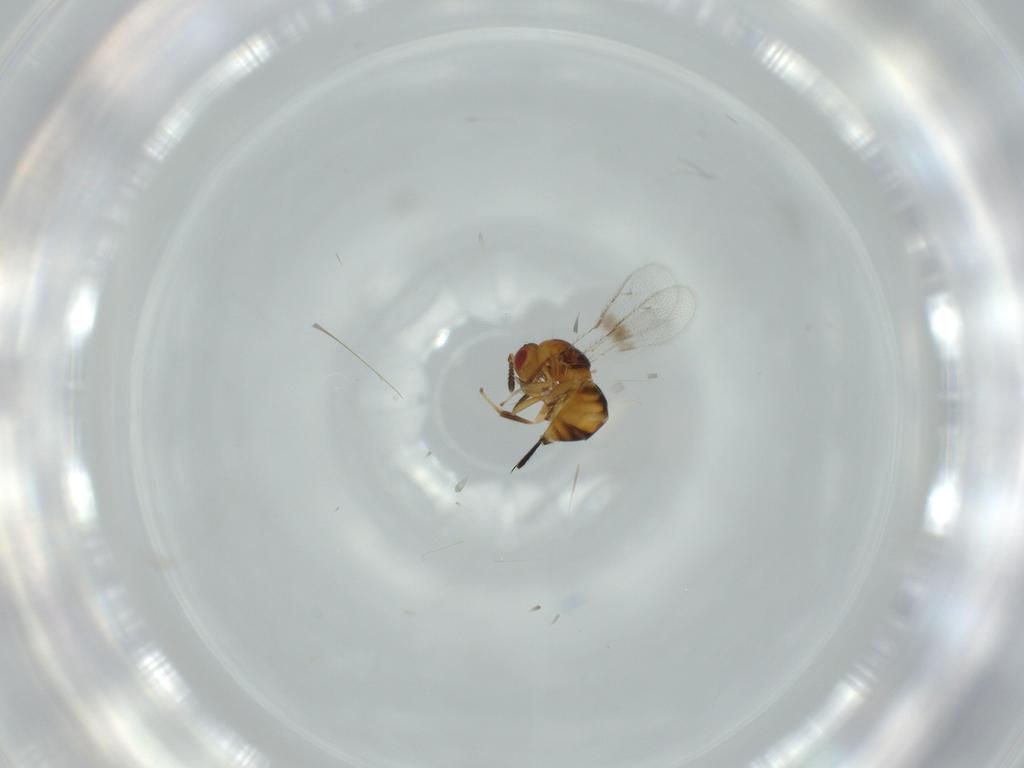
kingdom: Animalia
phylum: Arthropoda
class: Insecta
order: Hymenoptera
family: Torymidae
